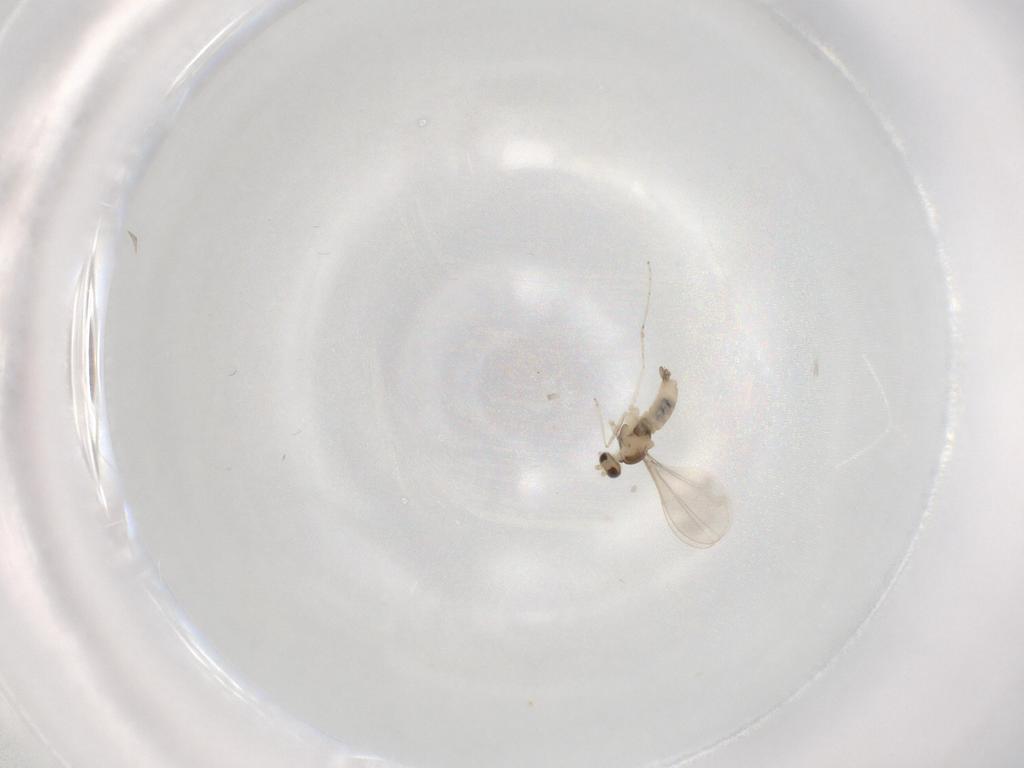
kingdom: Animalia
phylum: Arthropoda
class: Insecta
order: Diptera
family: Cecidomyiidae
